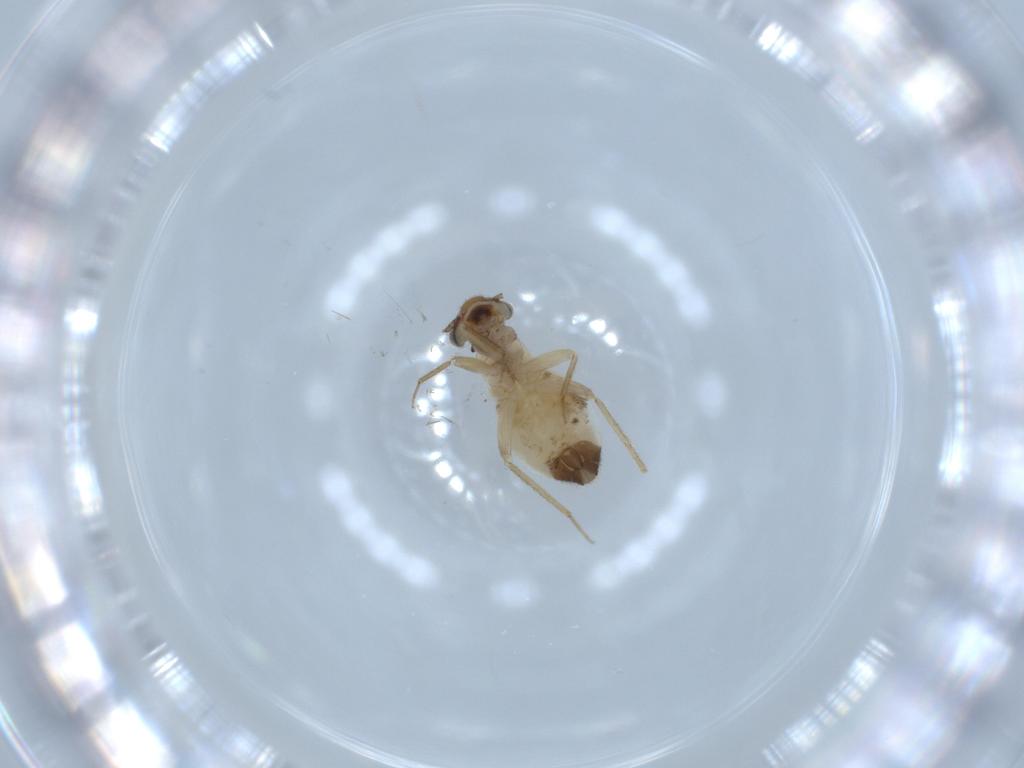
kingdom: Animalia
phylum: Arthropoda
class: Insecta
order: Psocodea
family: Lepidopsocidae
